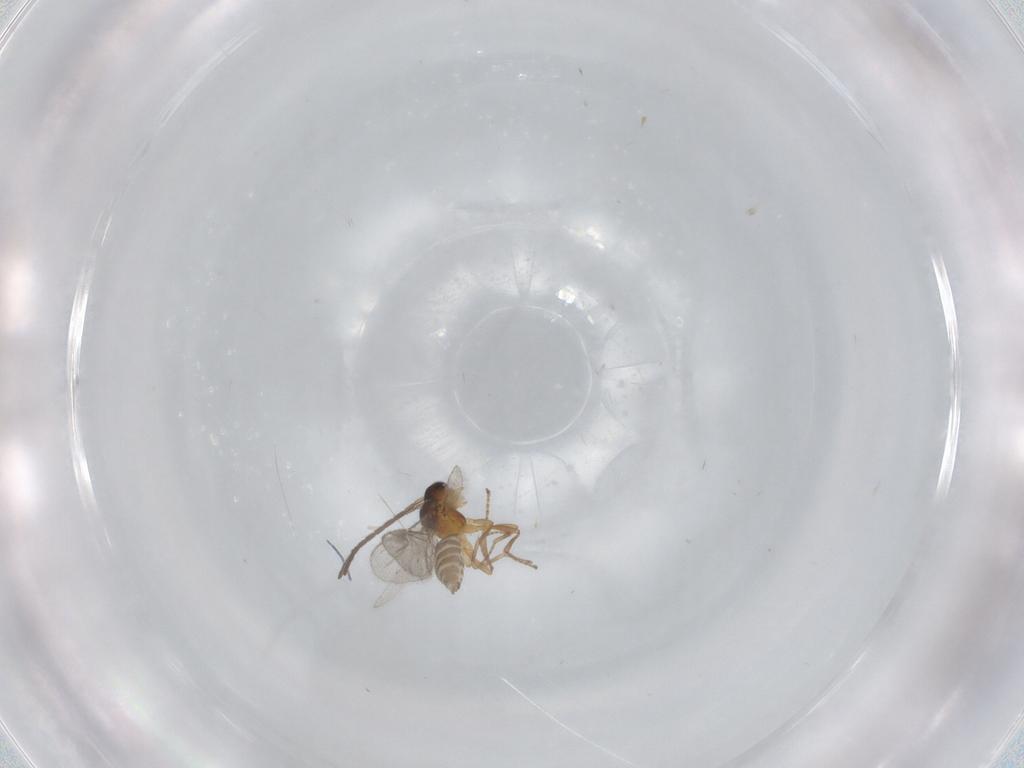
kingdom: Animalia
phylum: Arthropoda
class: Insecta
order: Hymenoptera
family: Braconidae
